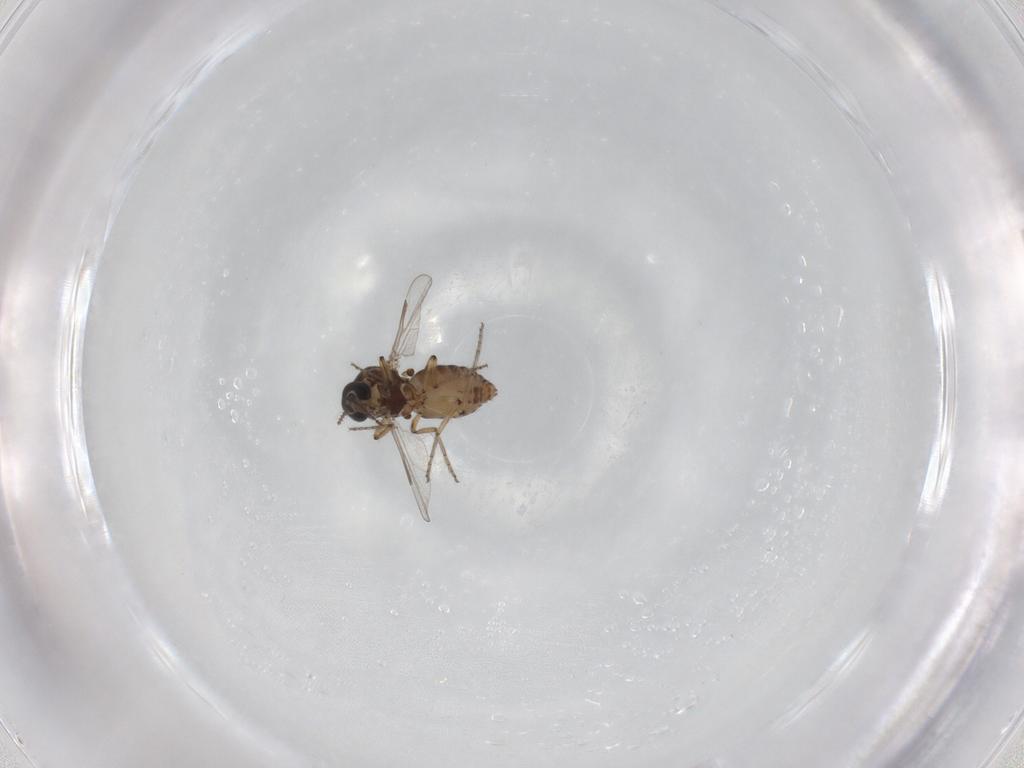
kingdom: Animalia
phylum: Arthropoda
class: Insecta
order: Diptera
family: Ceratopogonidae
